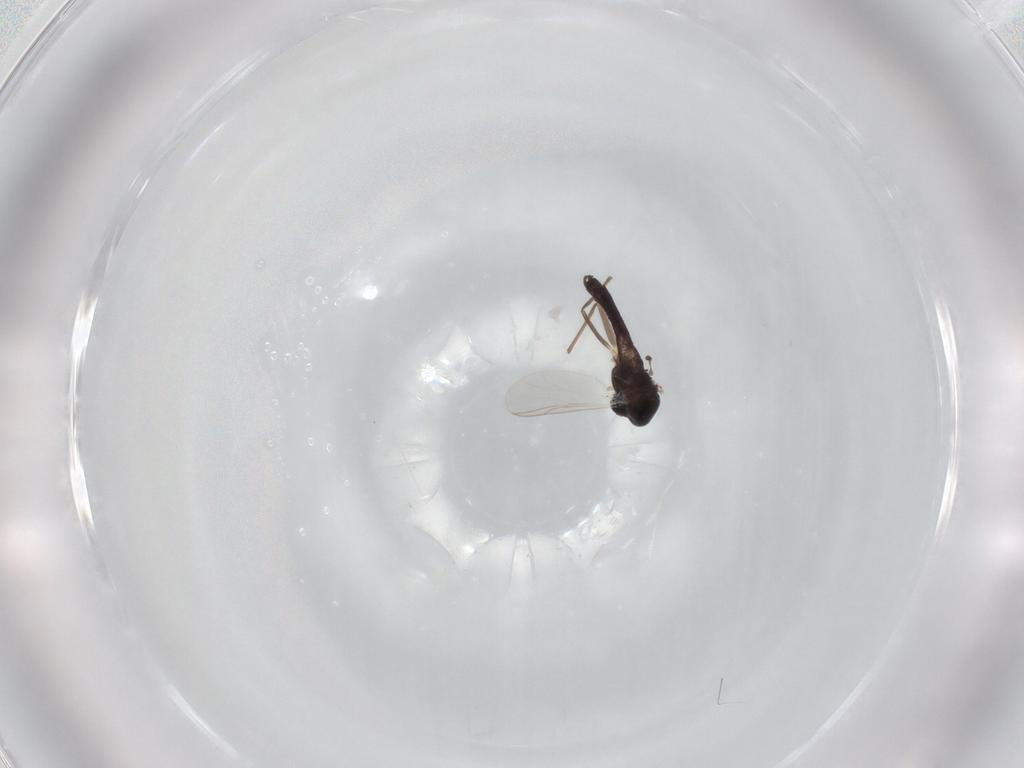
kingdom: Animalia
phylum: Arthropoda
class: Insecta
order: Diptera
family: Chironomidae
